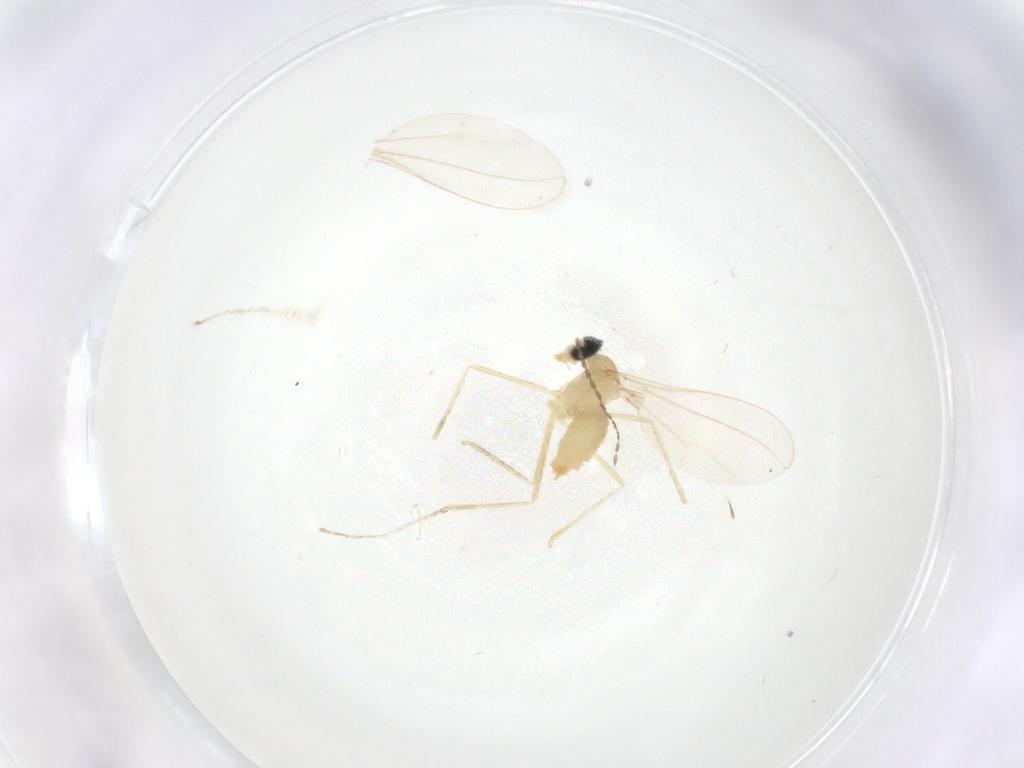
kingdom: Animalia
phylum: Arthropoda
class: Insecta
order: Diptera
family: Cecidomyiidae
